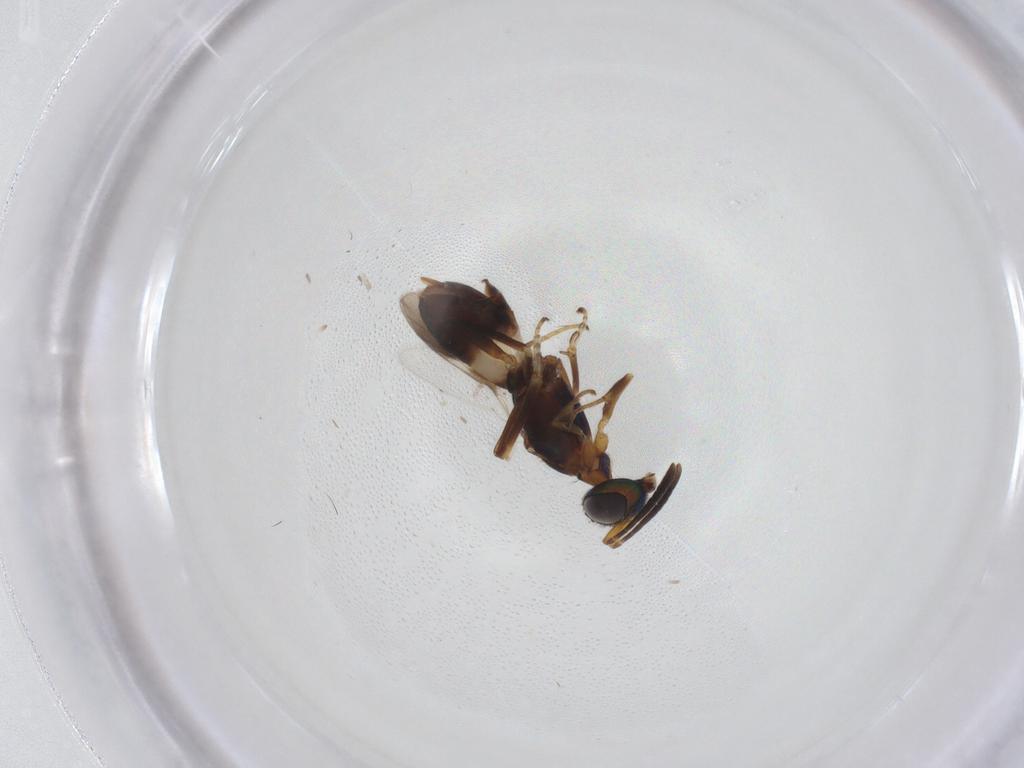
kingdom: Animalia
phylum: Arthropoda
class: Insecta
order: Hymenoptera
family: Eupelmidae
